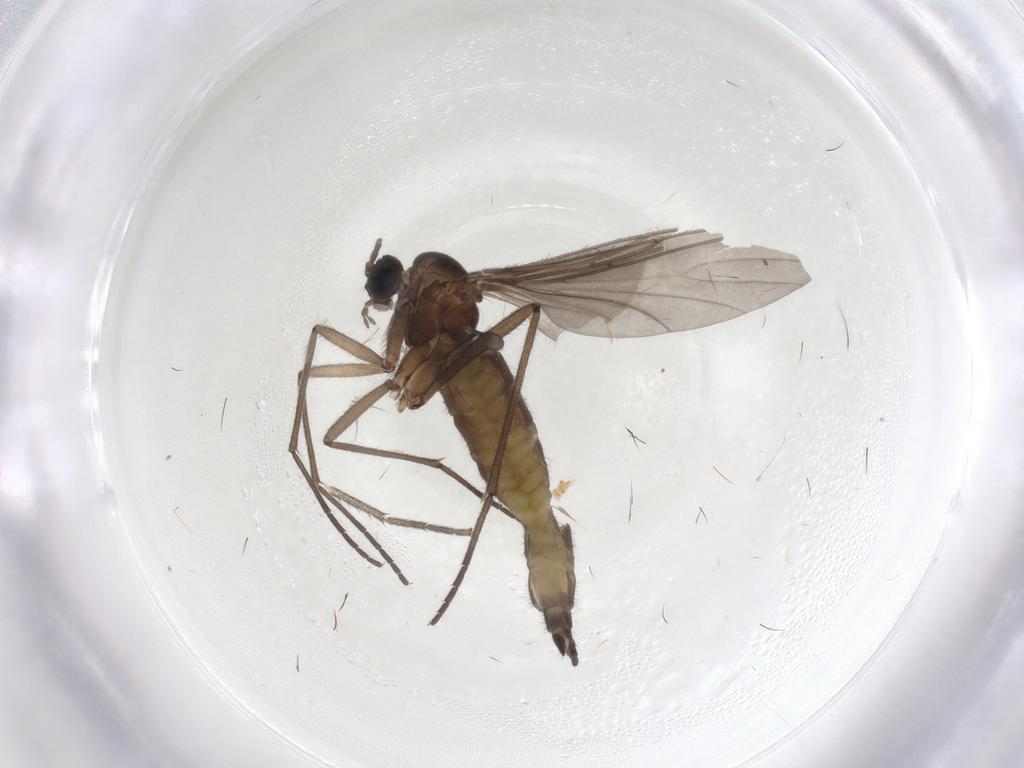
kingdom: Animalia
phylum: Arthropoda
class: Insecta
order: Diptera
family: Sciaridae
